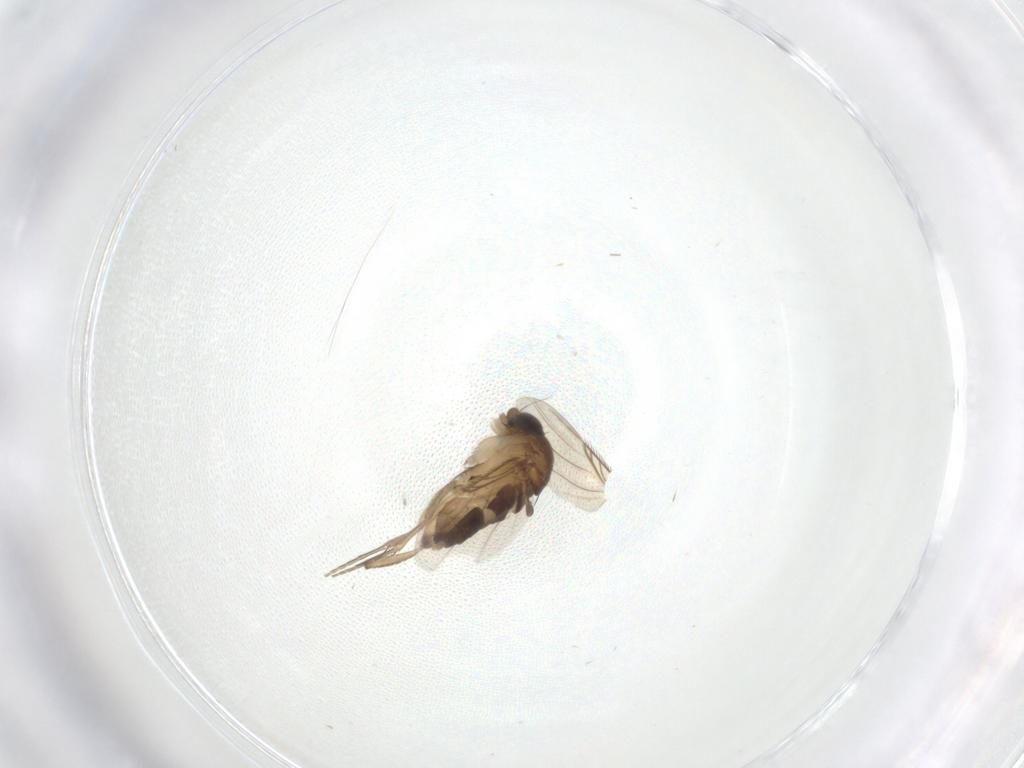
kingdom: Animalia
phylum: Arthropoda
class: Insecta
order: Diptera
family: Phoridae
